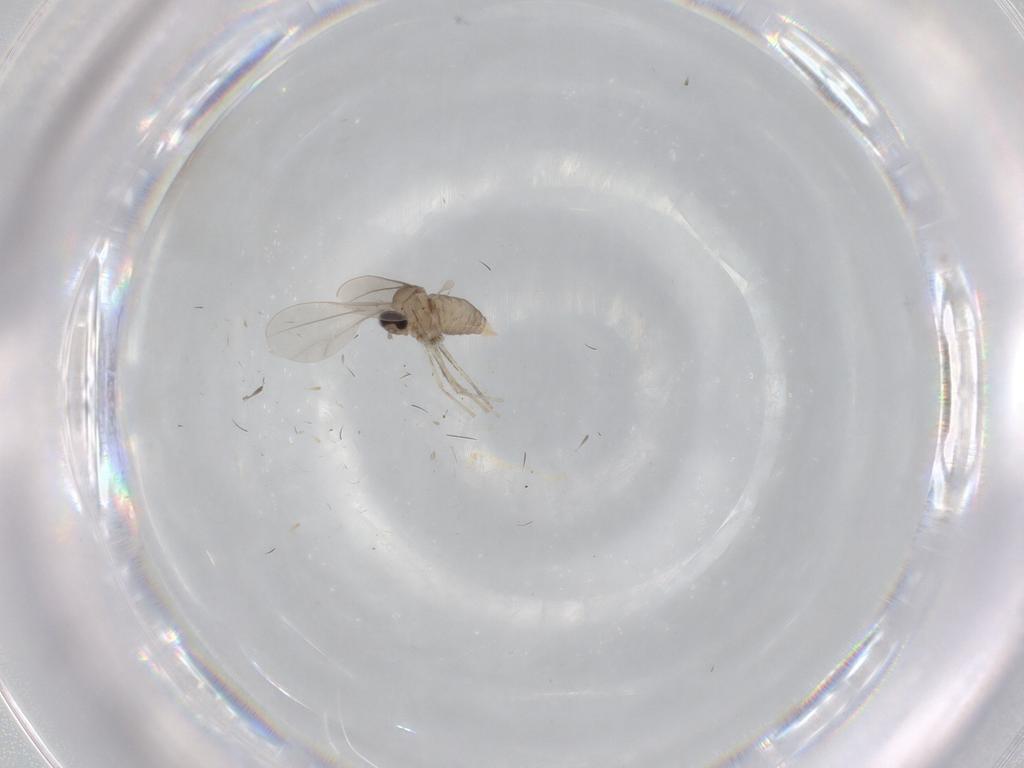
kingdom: Animalia
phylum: Arthropoda
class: Insecta
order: Diptera
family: Cecidomyiidae
